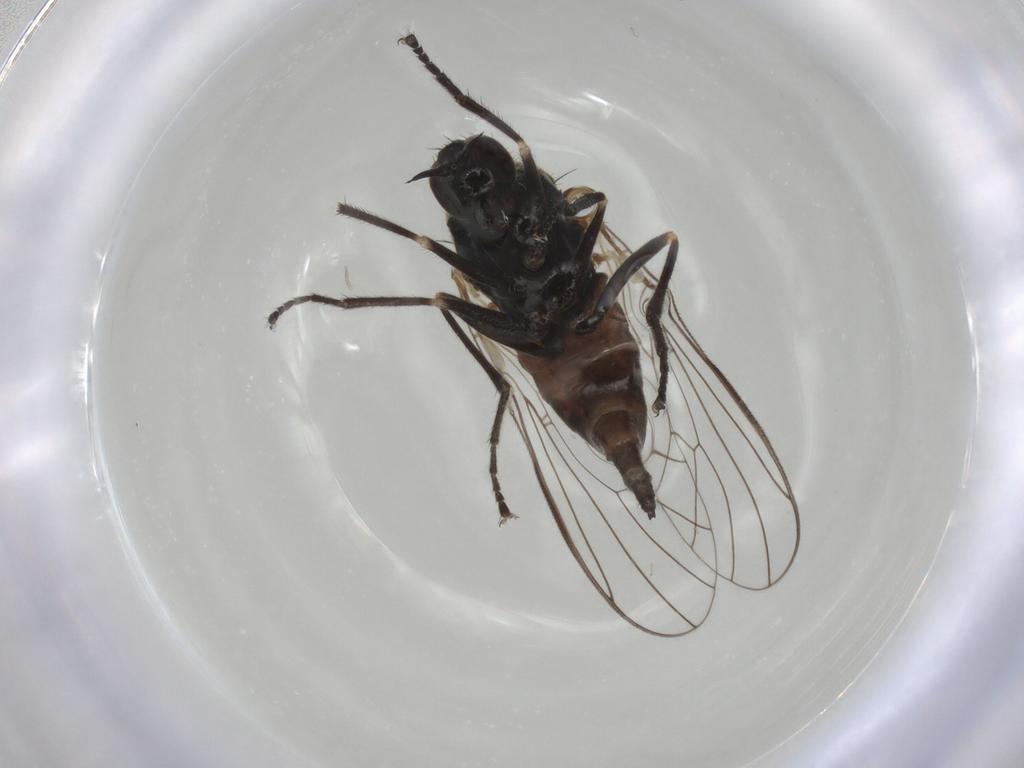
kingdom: Animalia
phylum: Arthropoda
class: Insecta
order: Diptera
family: Empididae
